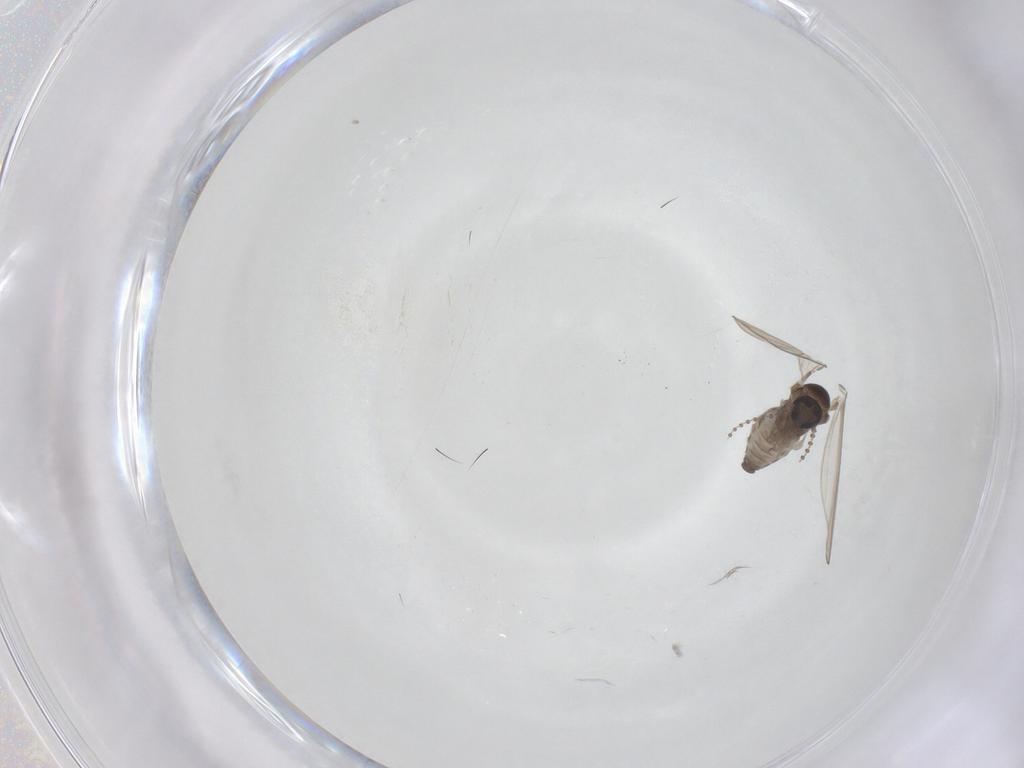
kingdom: Animalia
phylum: Arthropoda
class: Insecta
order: Diptera
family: Psychodidae
